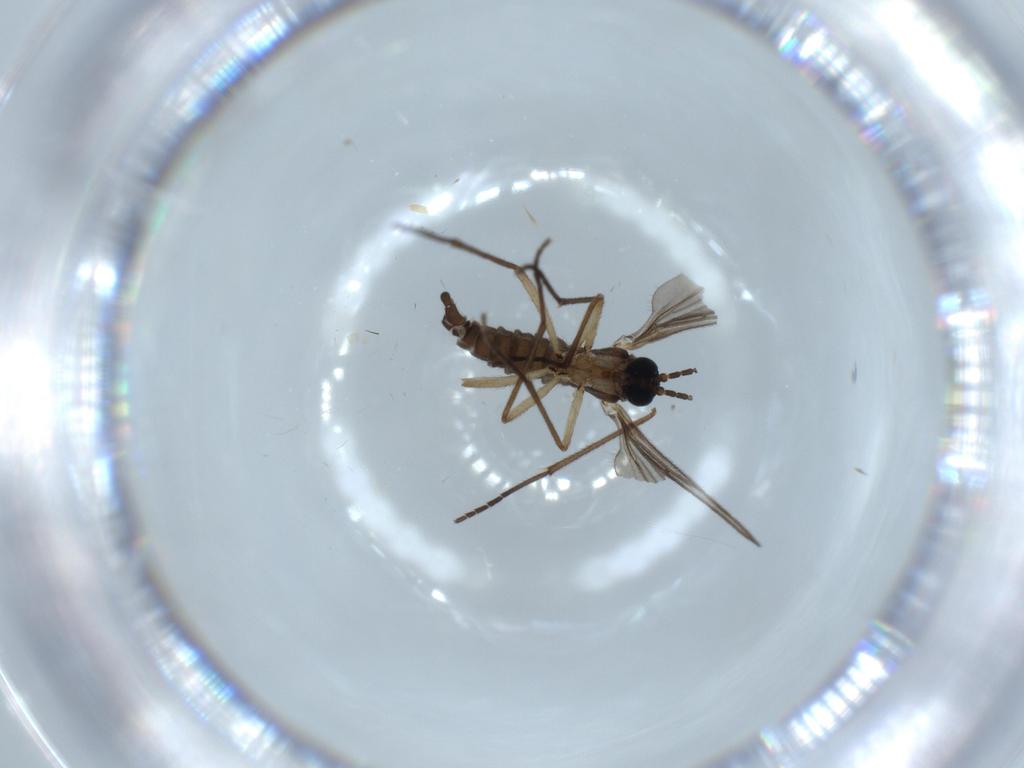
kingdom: Animalia
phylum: Arthropoda
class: Insecta
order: Diptera
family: Sciaridae
